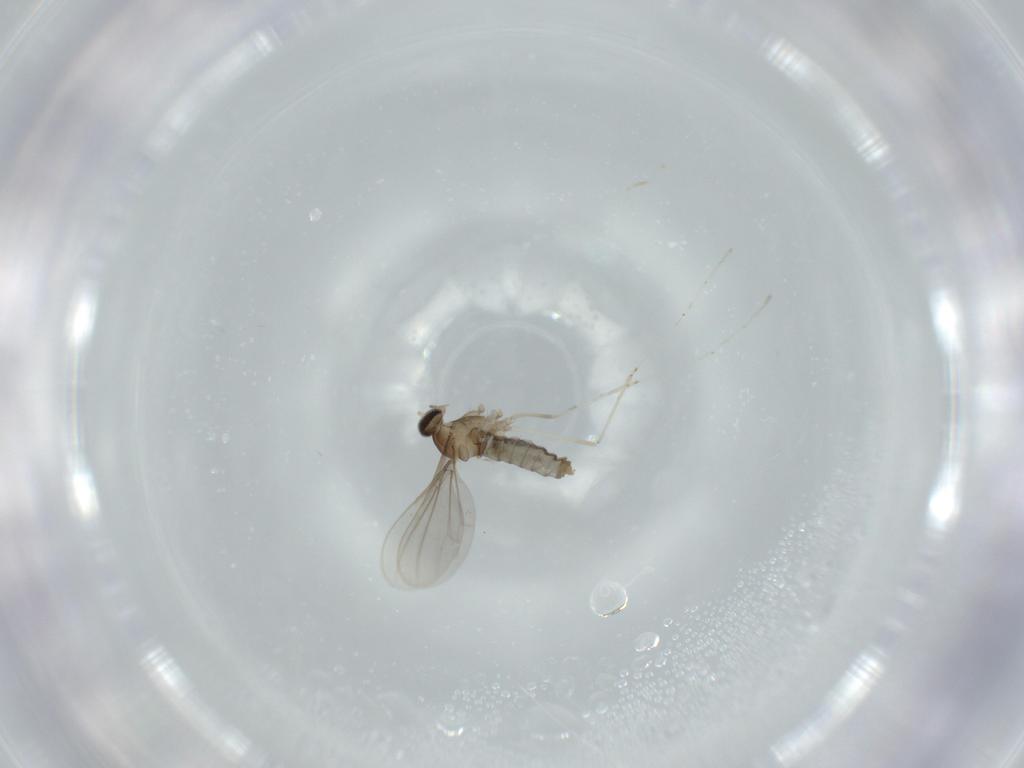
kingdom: Animalia
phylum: Arthropoda
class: Insecta
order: Diptera
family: Cecidomyiidae
